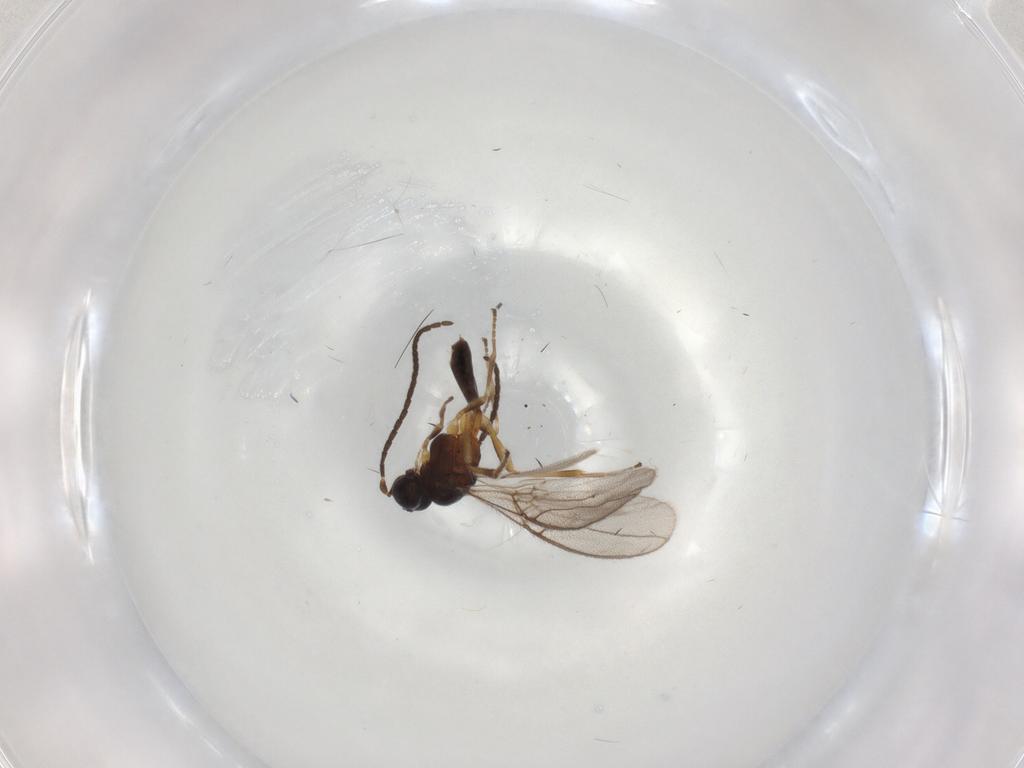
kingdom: Animalia
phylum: Arthropoda
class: Insecta
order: Hymenoptera
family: Braconidae
